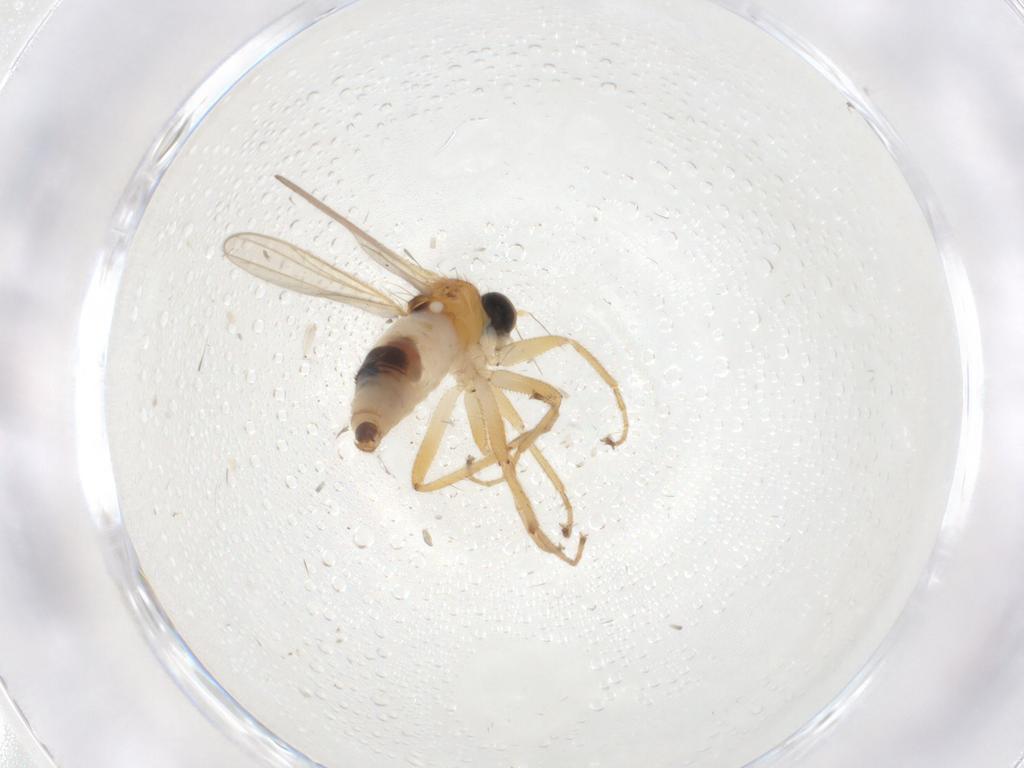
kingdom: Animalia
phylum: Arthropoda
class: Insecta
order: Diptera
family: Hybotidae
